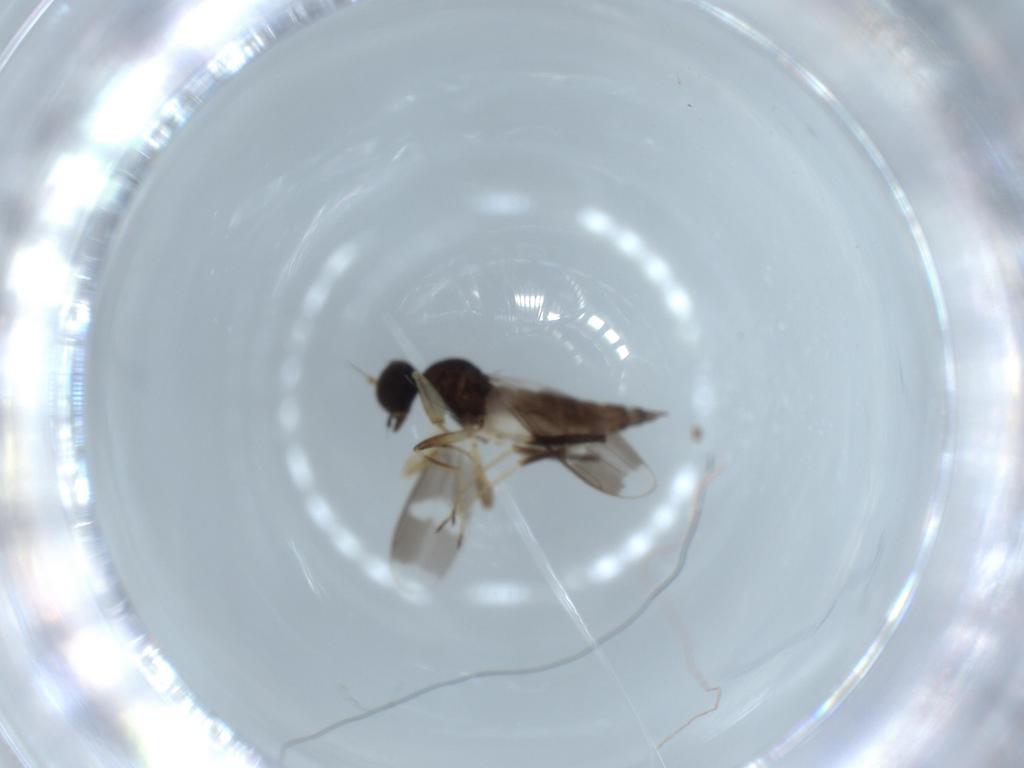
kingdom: Animalia
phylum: Arthropoda
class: Insecta
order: Diptera
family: Hybotidae
